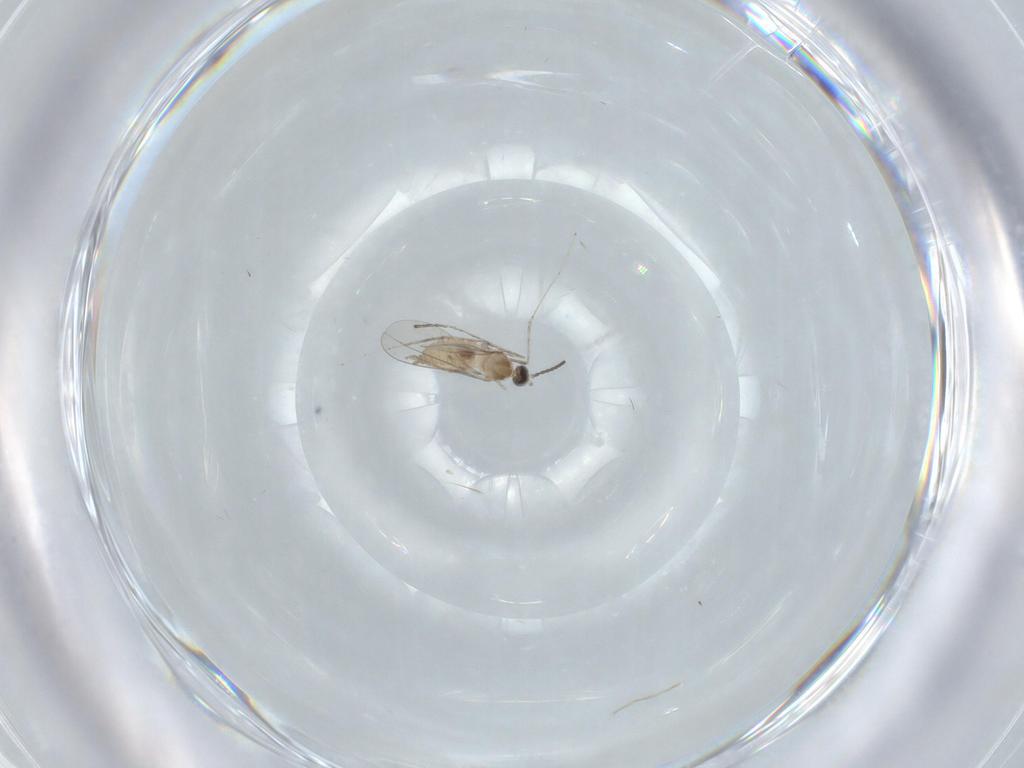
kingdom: Animalia
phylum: Arthropoda
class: Insecta
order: Diptera
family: Cecidomyiidae
